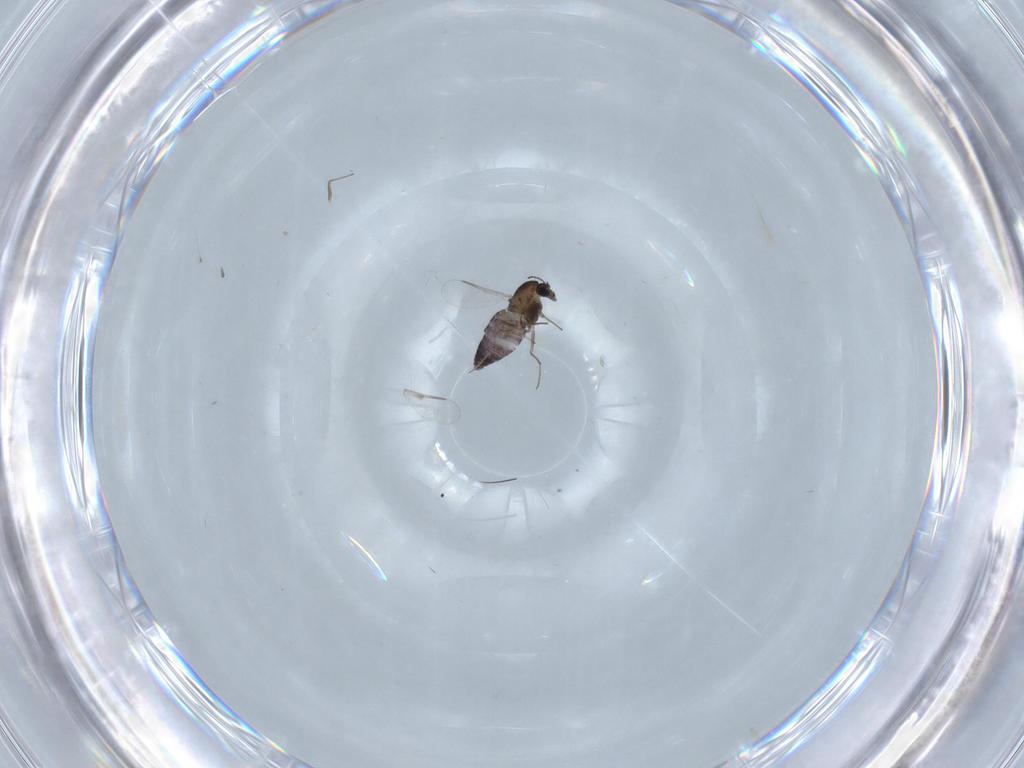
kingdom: Animalia
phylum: Arthropoda
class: Insecta
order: Diptera
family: Chironomidae
